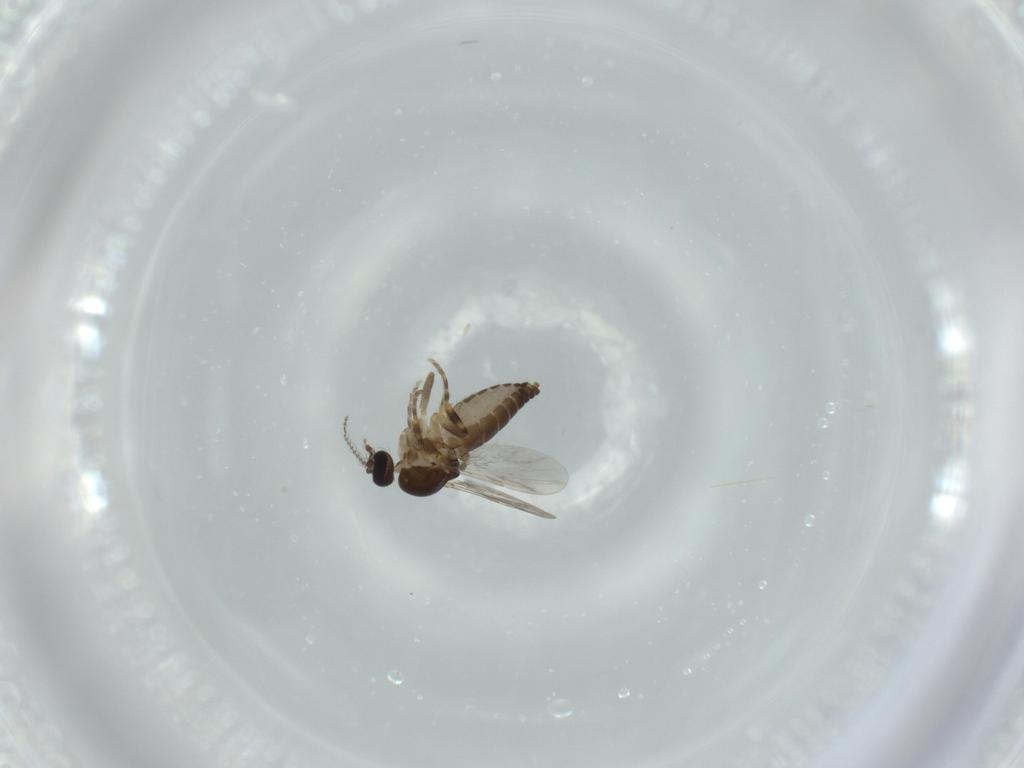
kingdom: Animalia
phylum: Arthropoda
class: Insecta
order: Diptera
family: Ceratopogonidae
